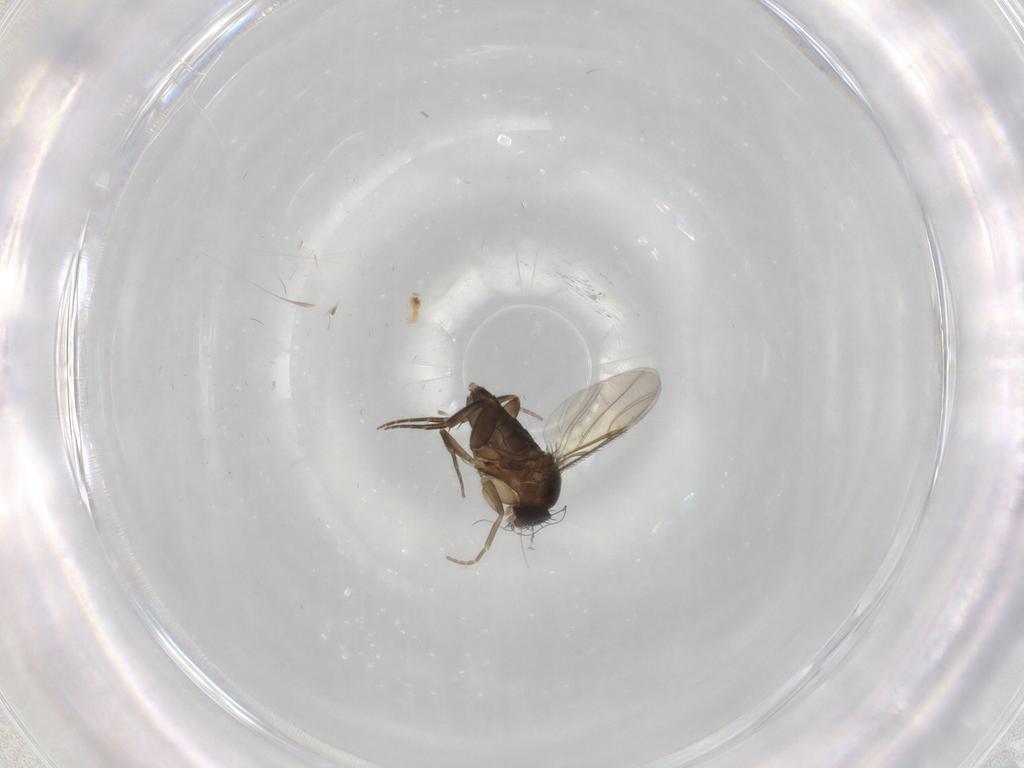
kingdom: Animalia
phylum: Arthropoda
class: Insecta
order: Diptera
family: Phoridae
